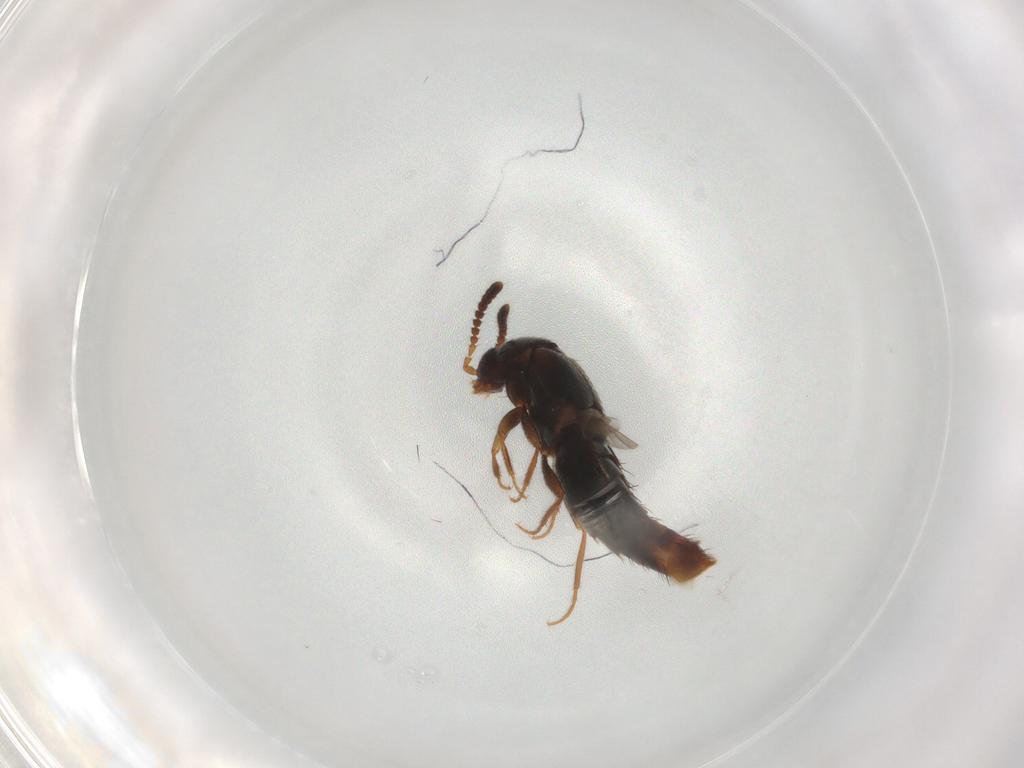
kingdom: Animalia
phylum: Arthropoda
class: Insecta
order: Coleoptera
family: Staphylinidae
